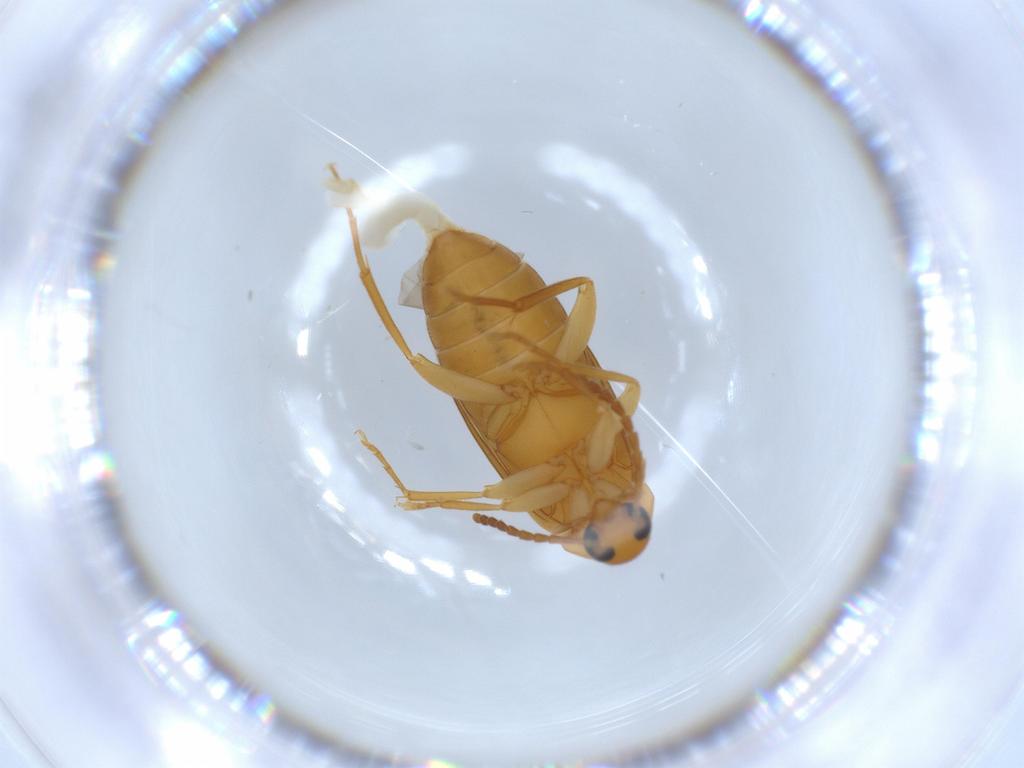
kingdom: Animalia
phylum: Arthropoda
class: Insecta
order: Coleoptera
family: Scraptiidae
